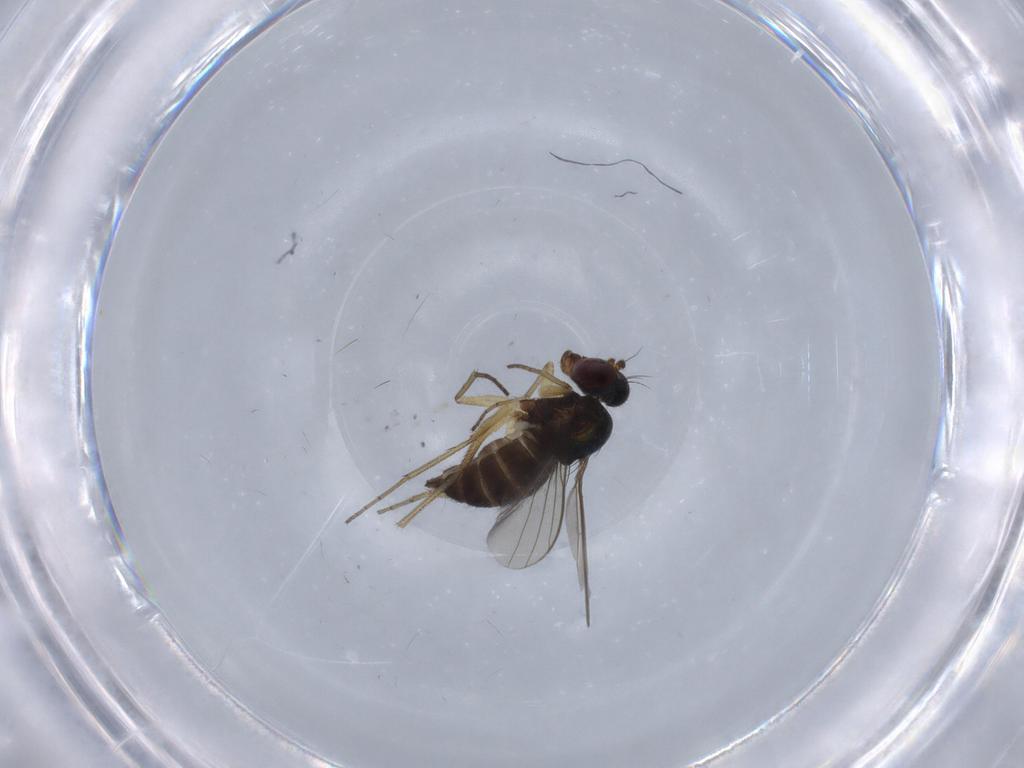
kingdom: Animalia
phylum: Arthropoda
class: Insecta
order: Diptera
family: Dolichopodidae
